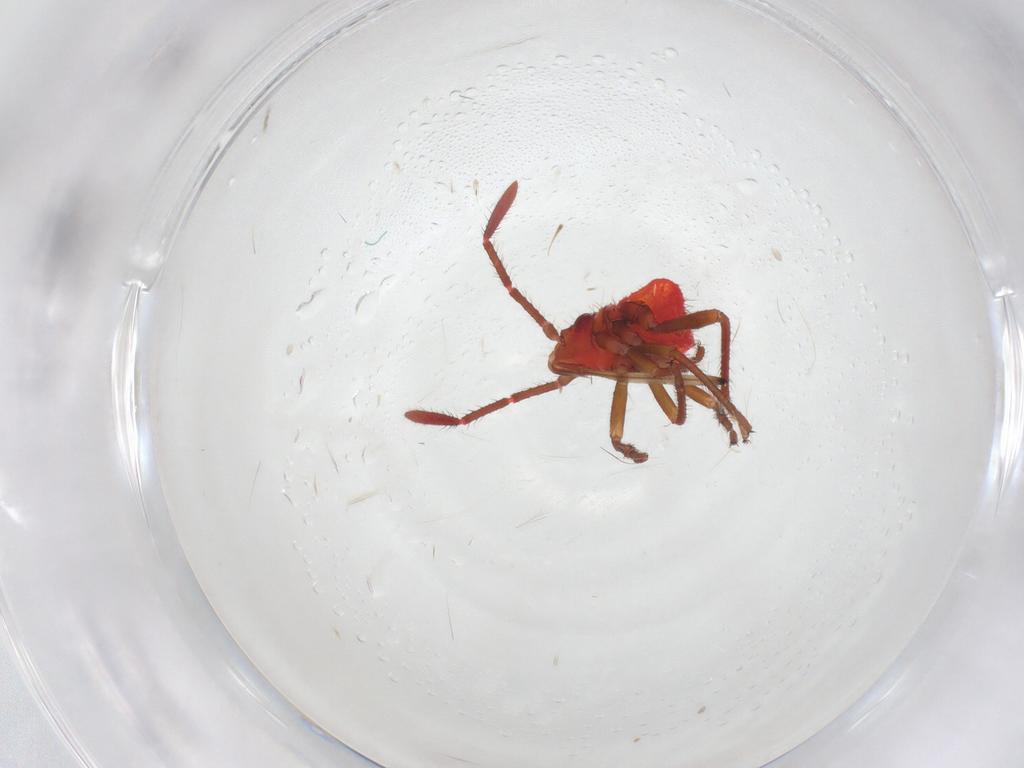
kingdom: Animalia
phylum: Arthropoda
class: Insecta
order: Hemiptera
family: Rhopalidae
